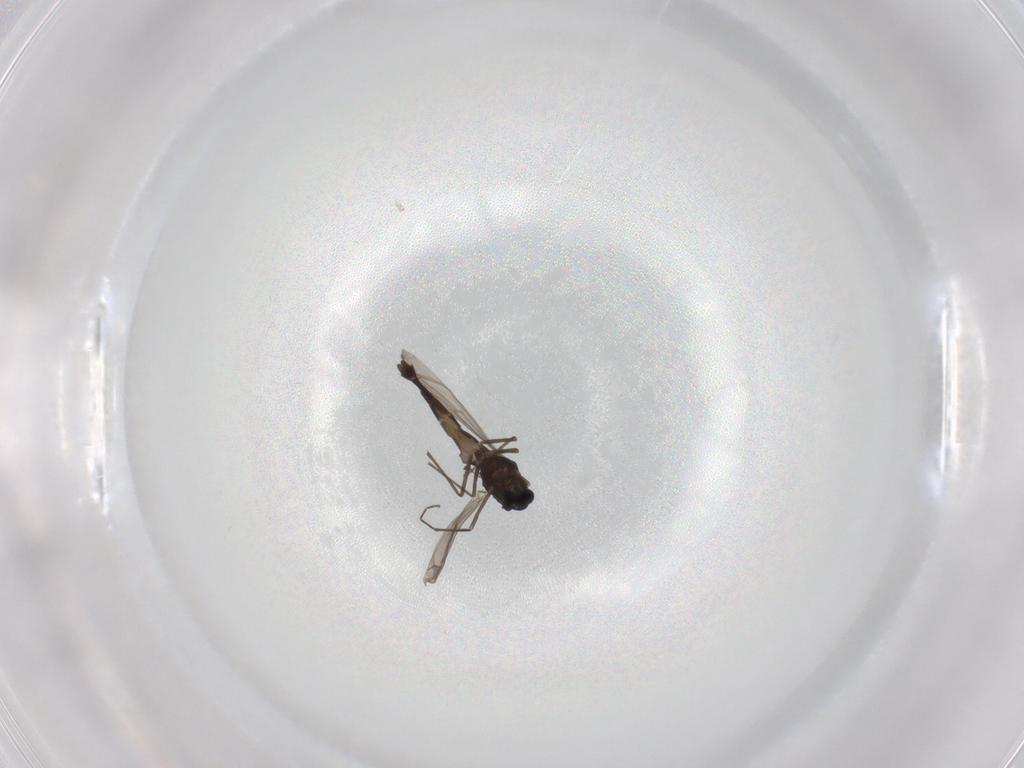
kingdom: Animalia
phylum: Arthropoda
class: Insecta
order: Diptera
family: Chironomidae
